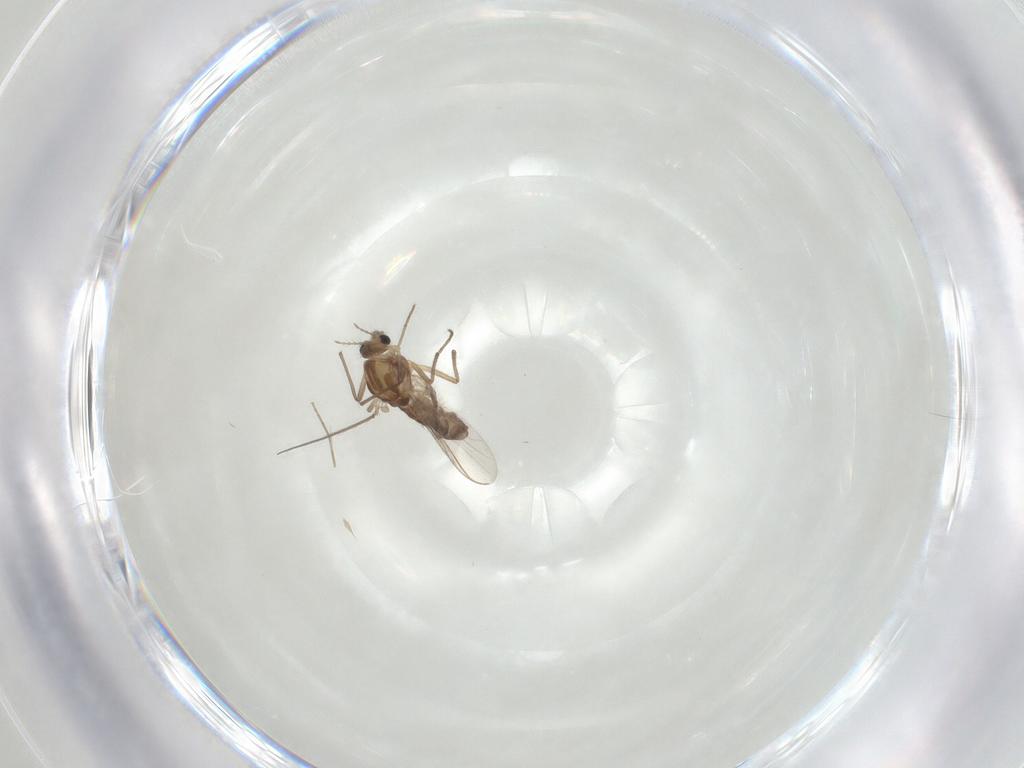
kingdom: Animalia
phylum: Arthropoda
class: Insecta
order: Diptera
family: Chironomidae
